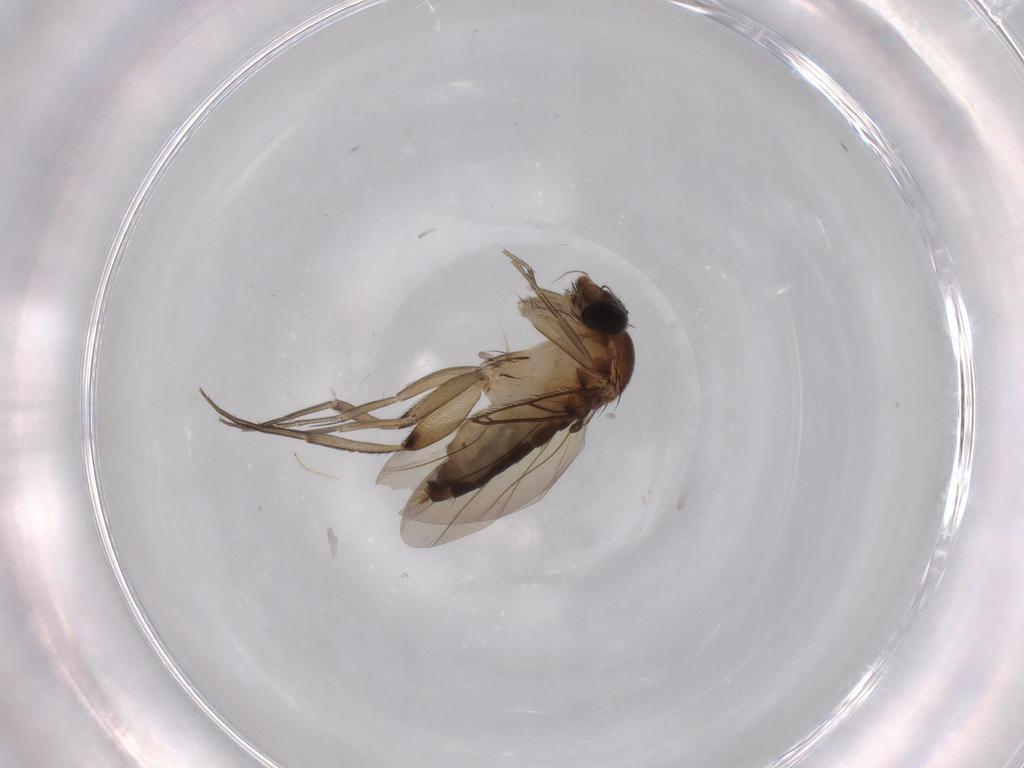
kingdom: Animalia
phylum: Arthropoda
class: Insecta
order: Diptera
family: Phoridae
